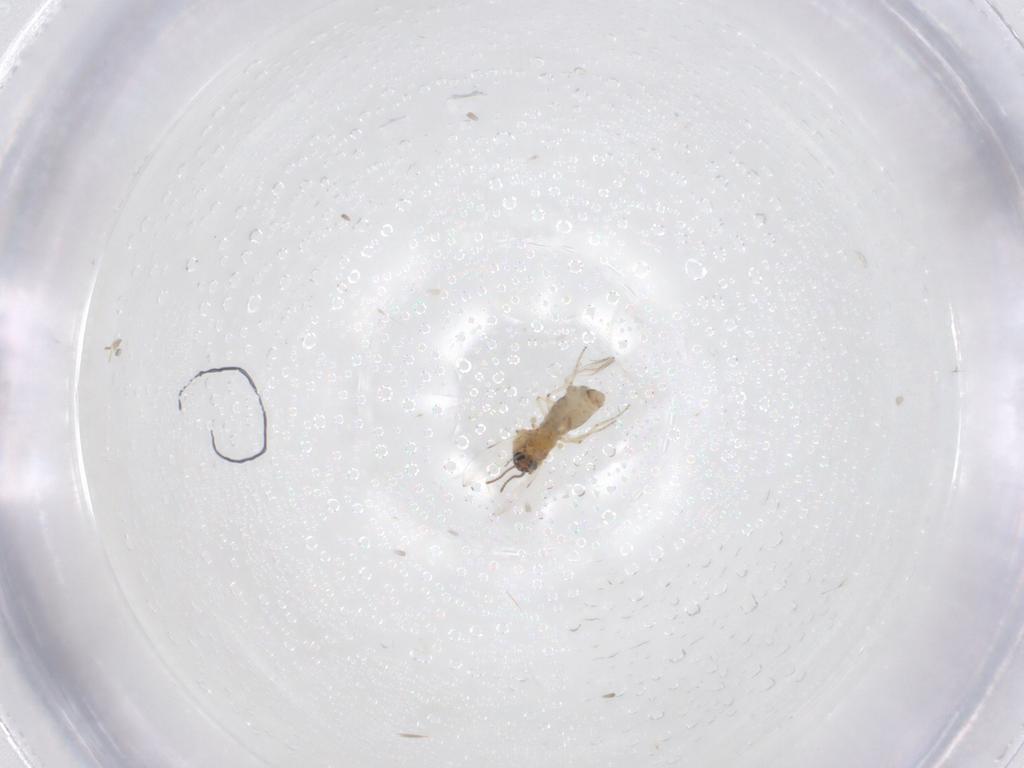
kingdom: Animalia
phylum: Arthropoda
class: Insecta
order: Diptera
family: Ceratopogonidae
